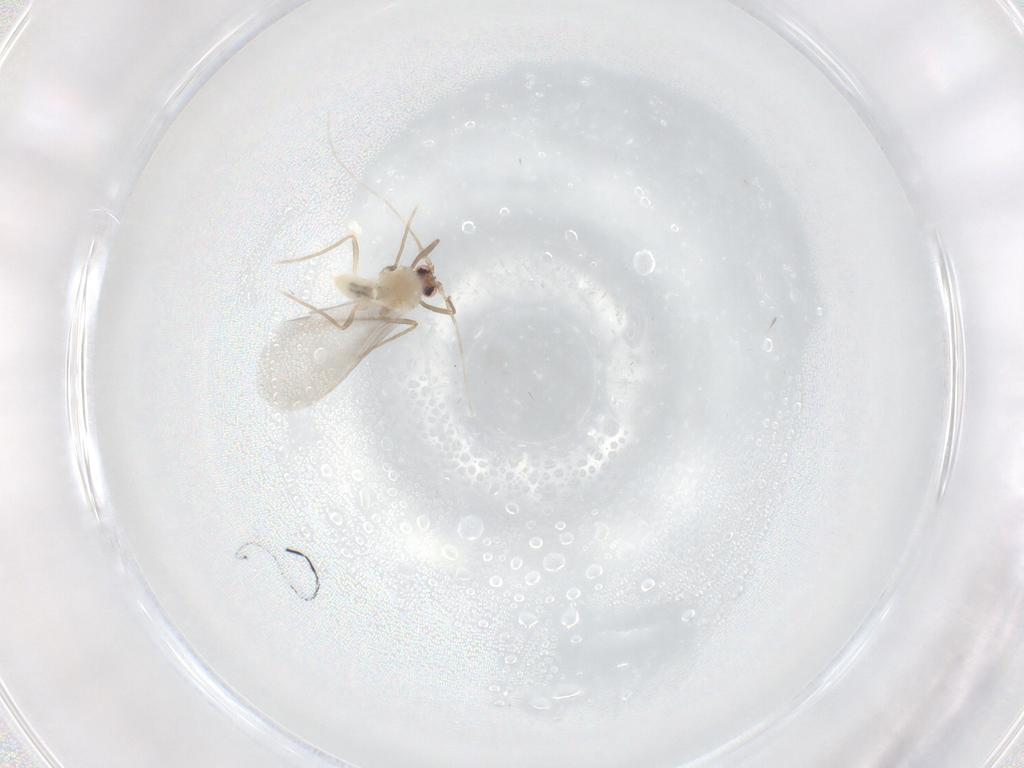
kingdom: Animalia
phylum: Arthropoda
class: Insecta
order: Diptera
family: Mycetophilidae
